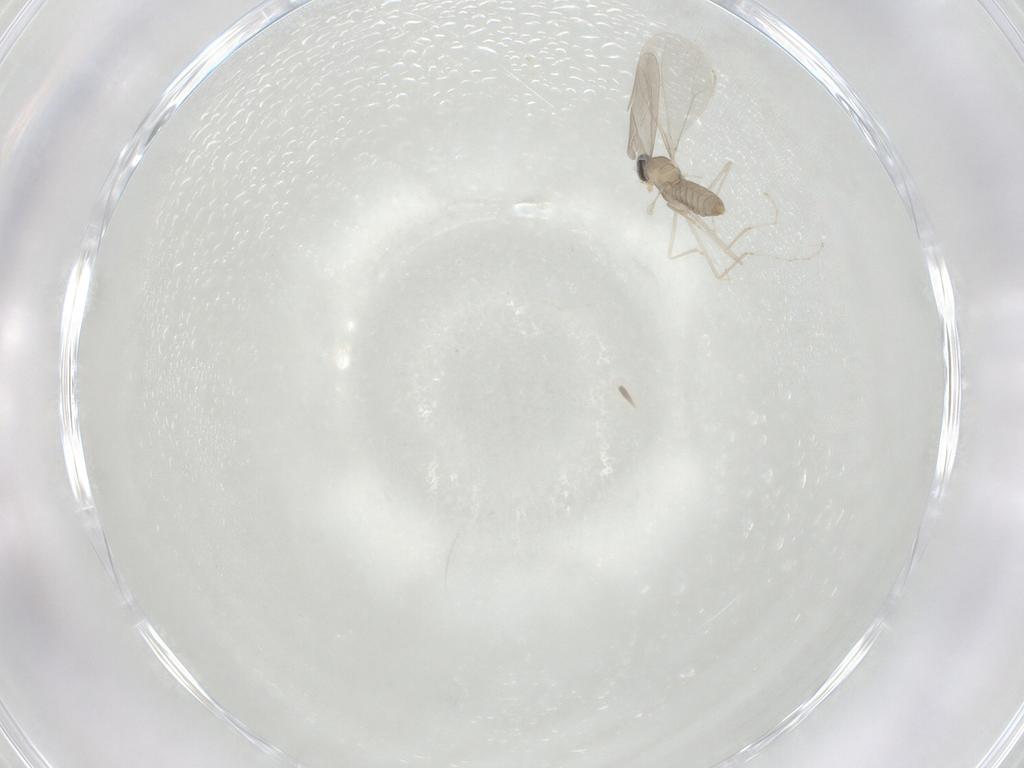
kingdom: Animalia
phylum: Arthropoda
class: Insecta
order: Diptera
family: Cecidomyiidae
